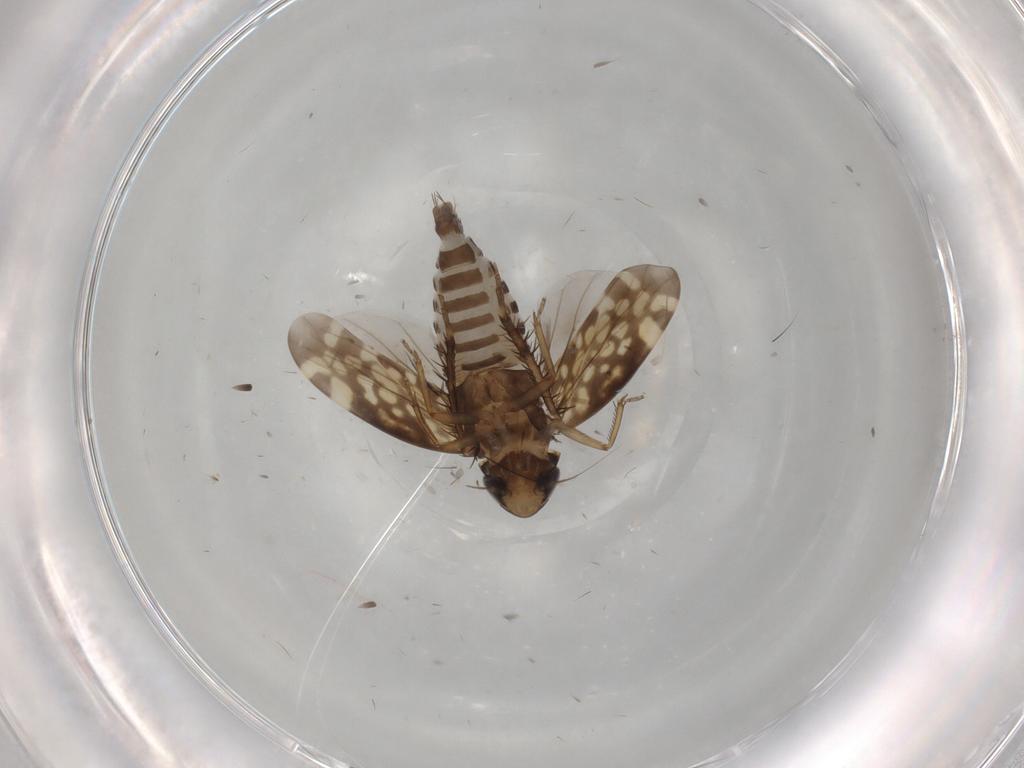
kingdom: Animalia
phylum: Arthropoda
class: Insecta
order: Hemiptera
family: Cicadellidae
